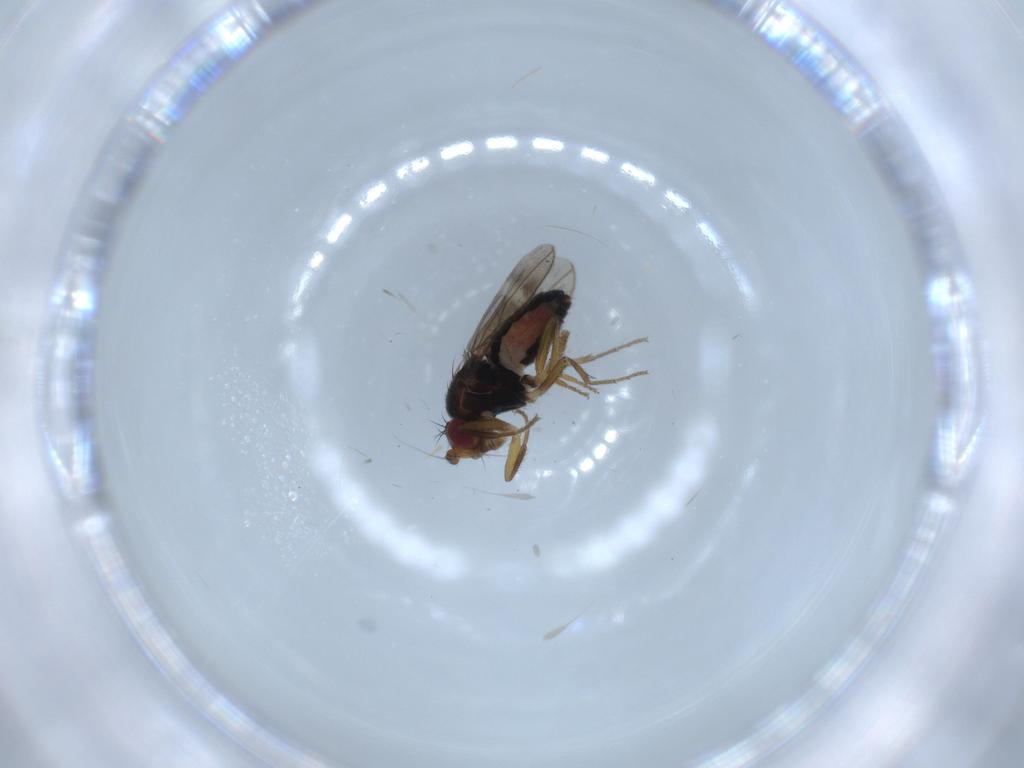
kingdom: Animalia
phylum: Arthropoda
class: Insecta
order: Diptera
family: Sphaeroceridae
